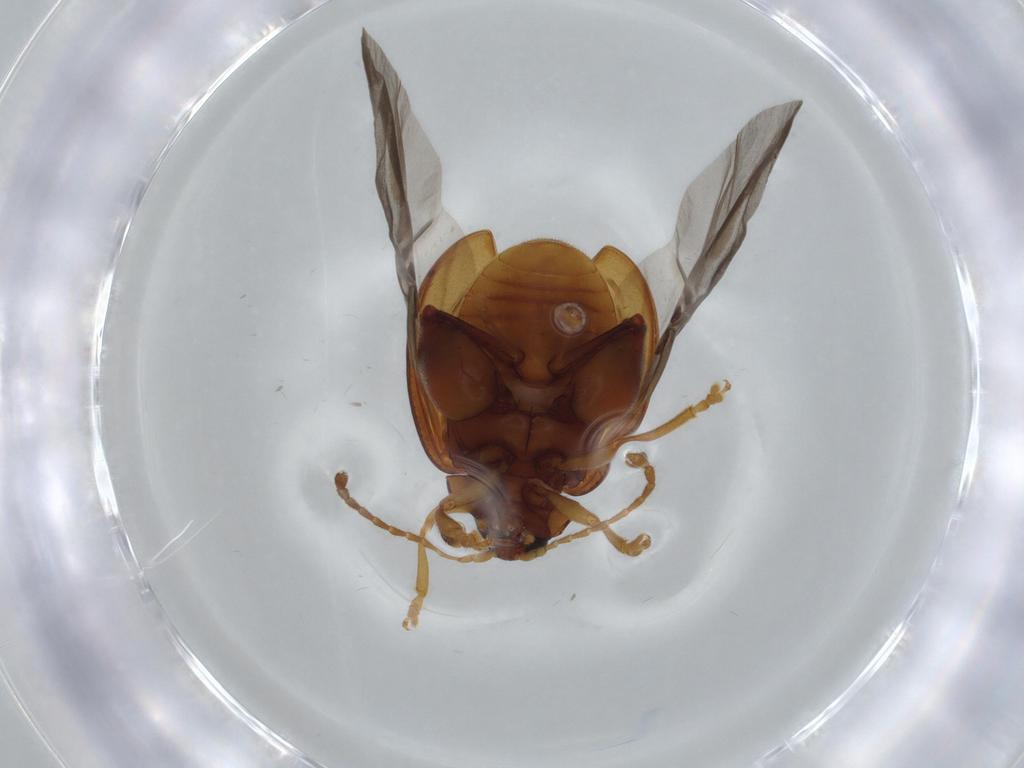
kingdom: Animalia
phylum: Arthropoda
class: Insecta
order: Coleoptera
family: Chrysomelidae
